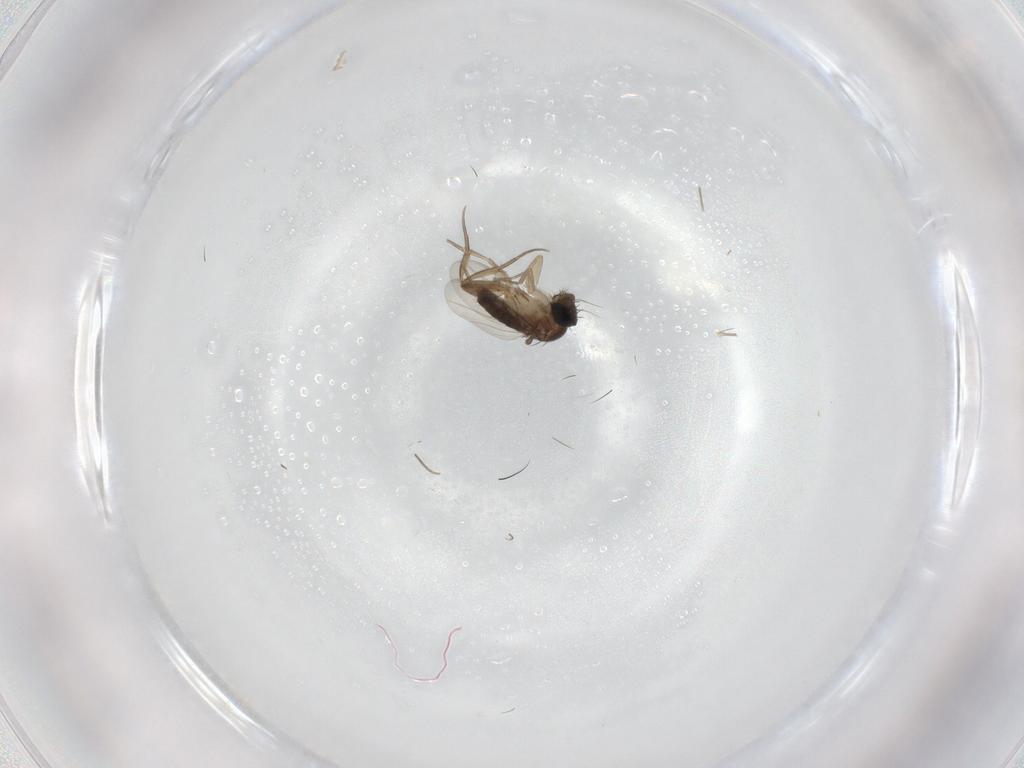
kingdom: Animalia
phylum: Arthropoda
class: Insecta
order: Diptera
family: Phoridae
